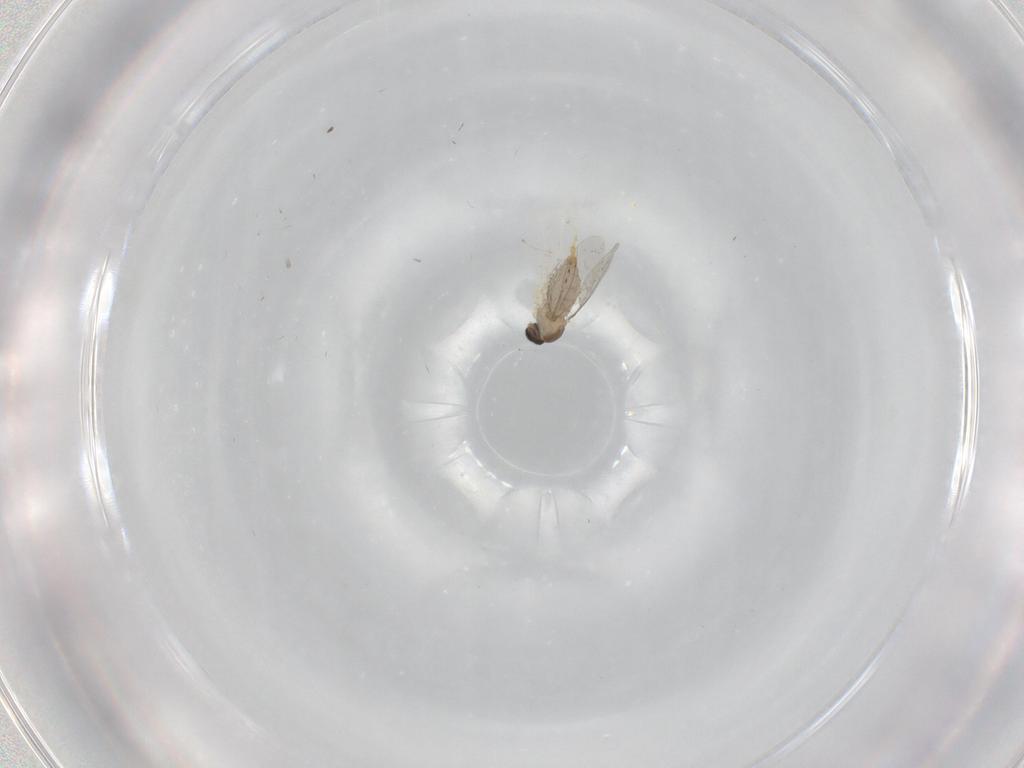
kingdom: Animalia
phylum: Arthropoda
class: Insecta
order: Diptera
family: Cecidomyiidae
